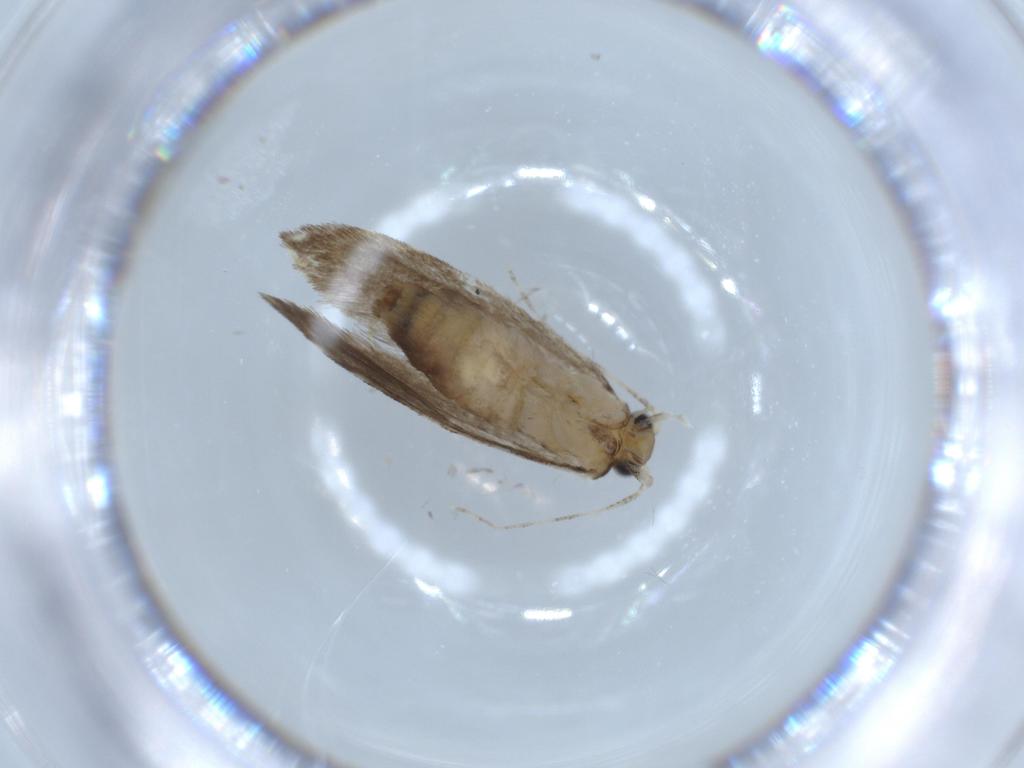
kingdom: Animalia
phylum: Arthropoda
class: Insecta
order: Lepidoptera
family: Tineidae
